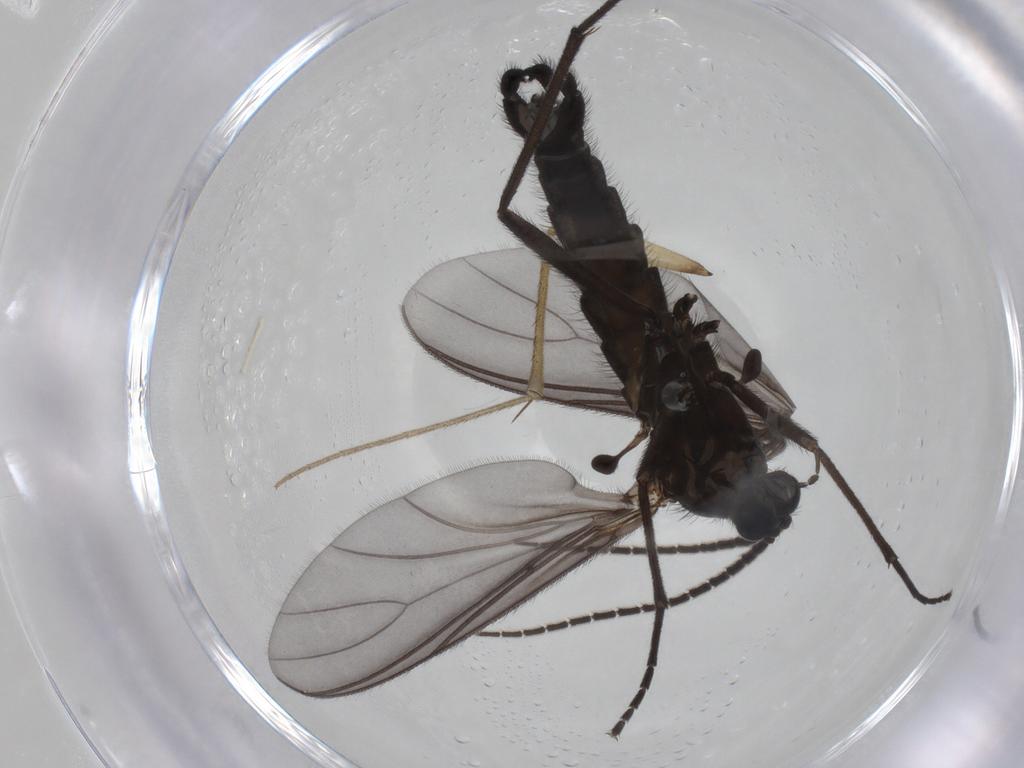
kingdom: Animalia
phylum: Arthropoda
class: Insecta
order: Diptera
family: Mycetophilidae
